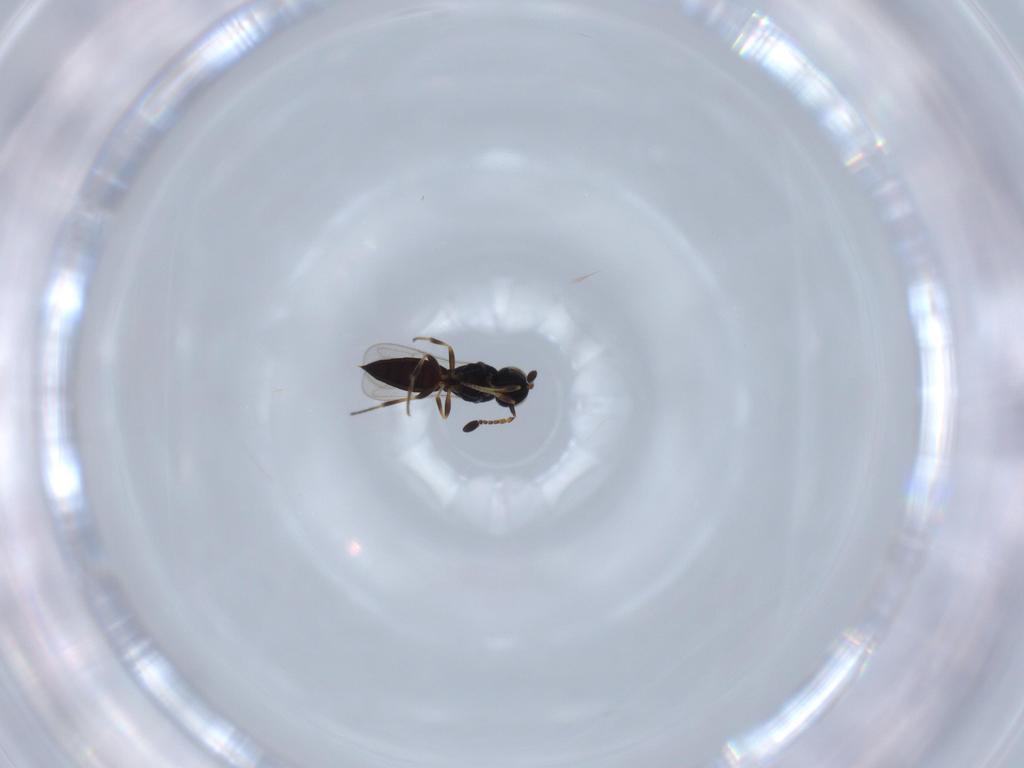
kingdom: Animalia
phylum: Arthropoda
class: Insecta
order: Hymenoptera
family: Scelionidae
